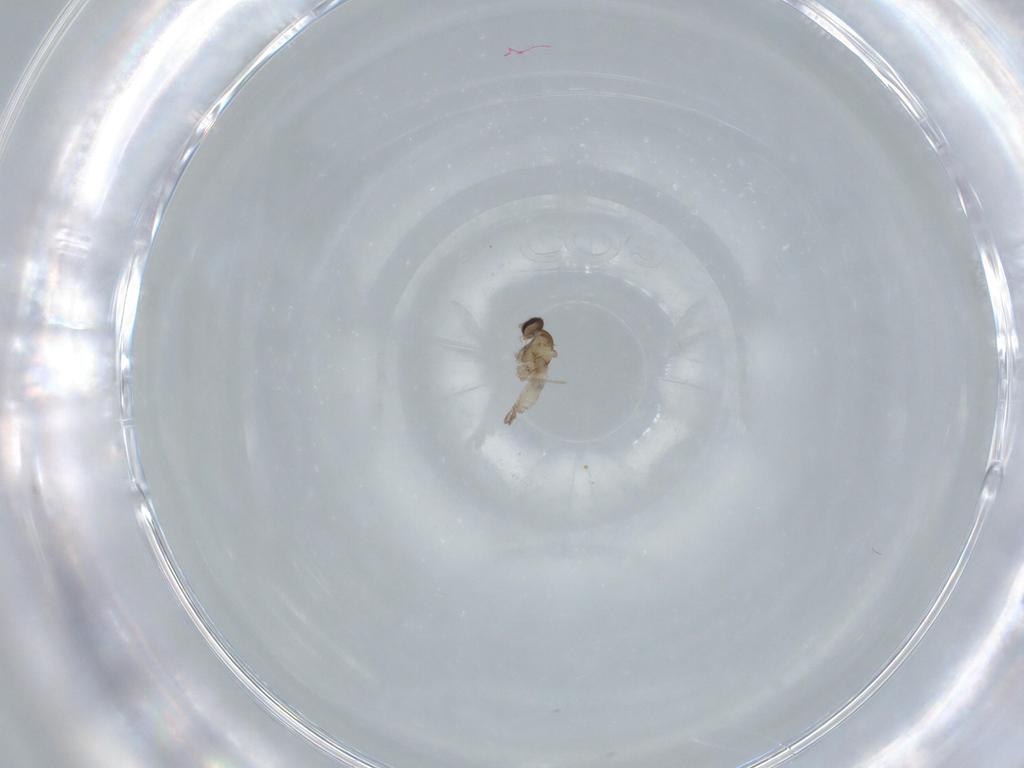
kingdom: Animalia
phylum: Arthropoda
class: Insecta
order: Diptera
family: Cecidomyiidae
